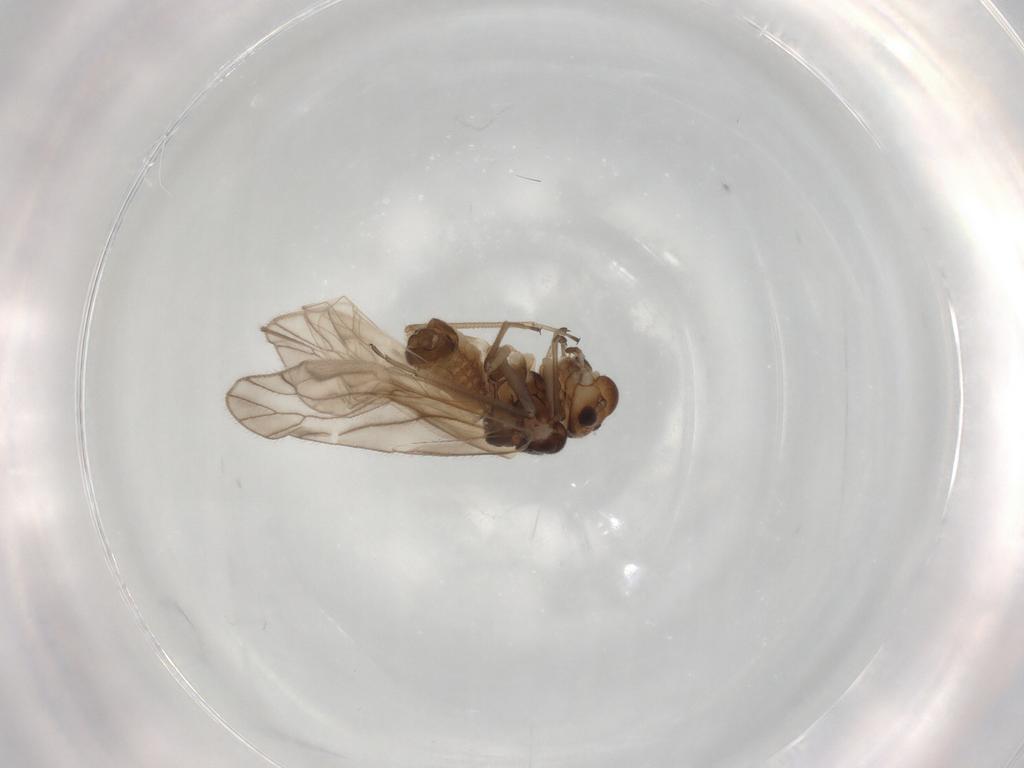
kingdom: Animalia
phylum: Arthropoda
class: Insecta
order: Psocodea
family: Philotarsidae
